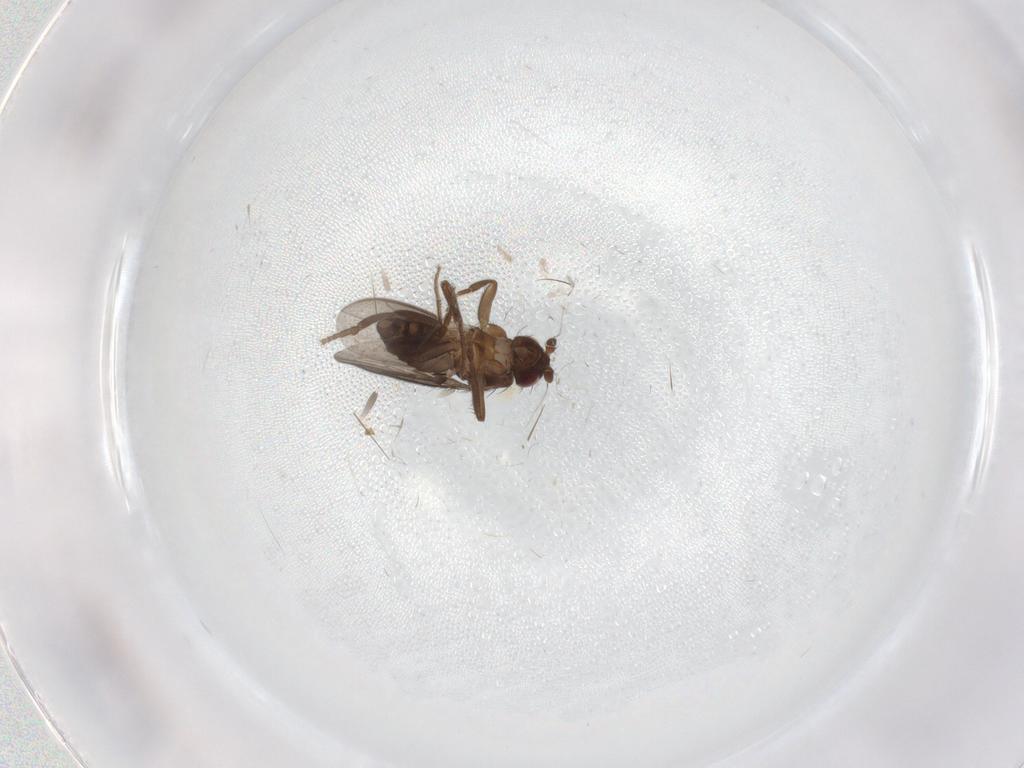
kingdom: Animalia
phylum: Arthropoda
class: Insecta
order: Diptera
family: Sphaeroceridae
